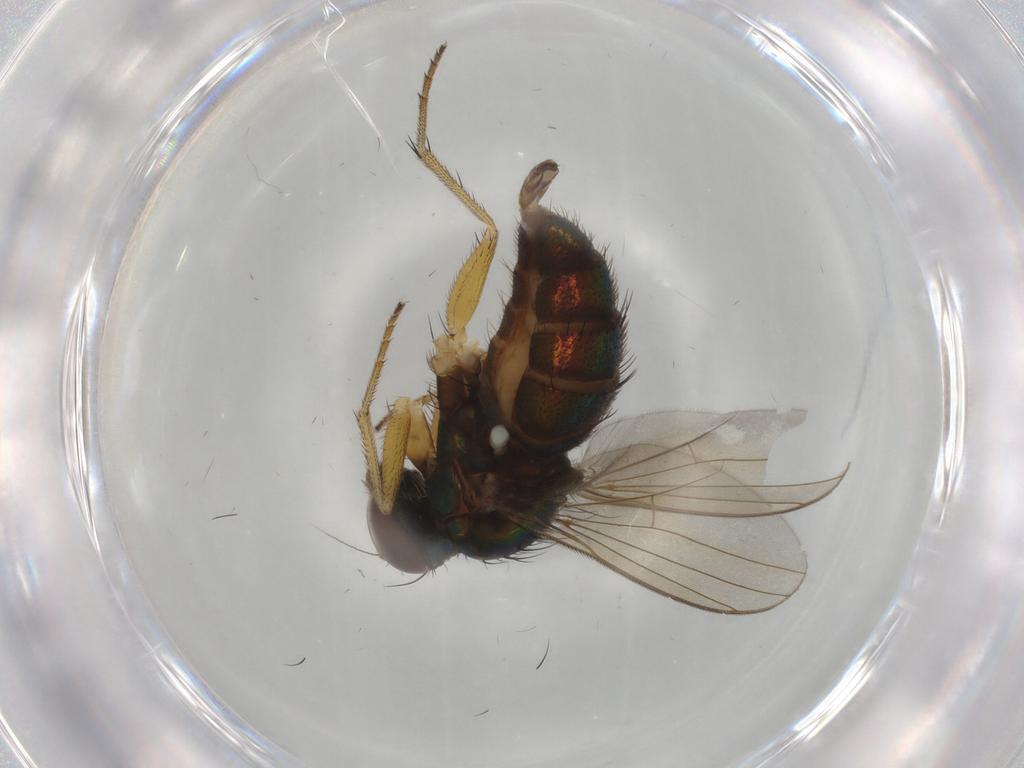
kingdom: Animalia
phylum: Arthropoda
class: Insecta
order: Diptera
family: Dolichopodidae
